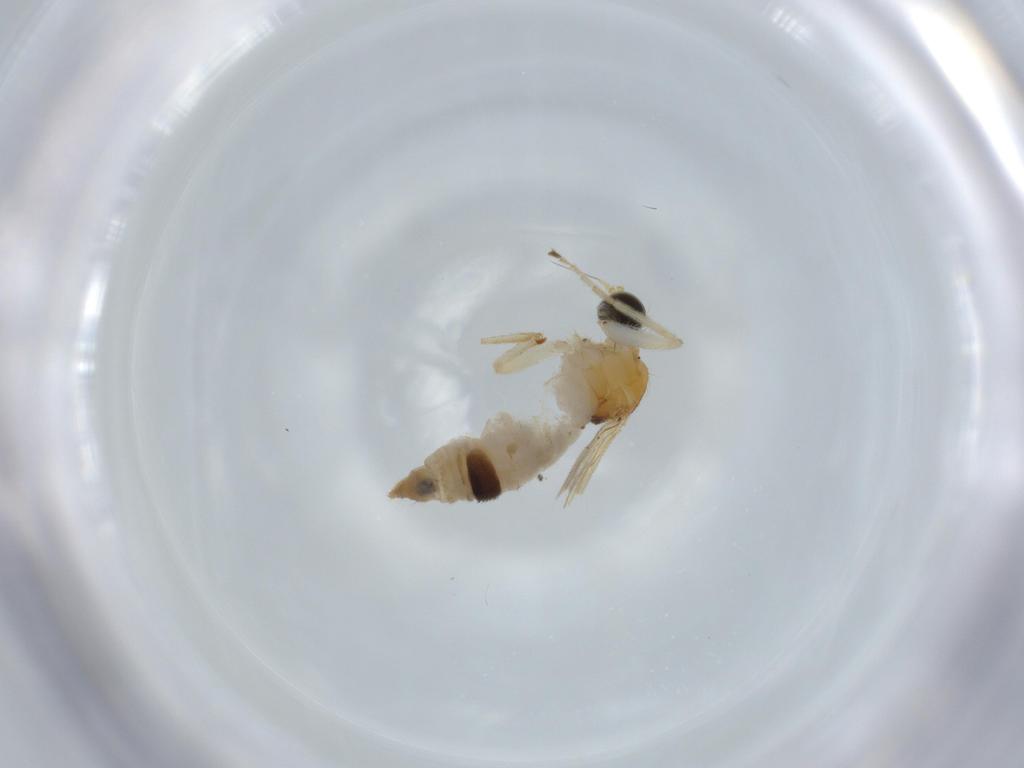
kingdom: Animalia
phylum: Arthropoda
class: Insecta
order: Diptera
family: Hybotidae
